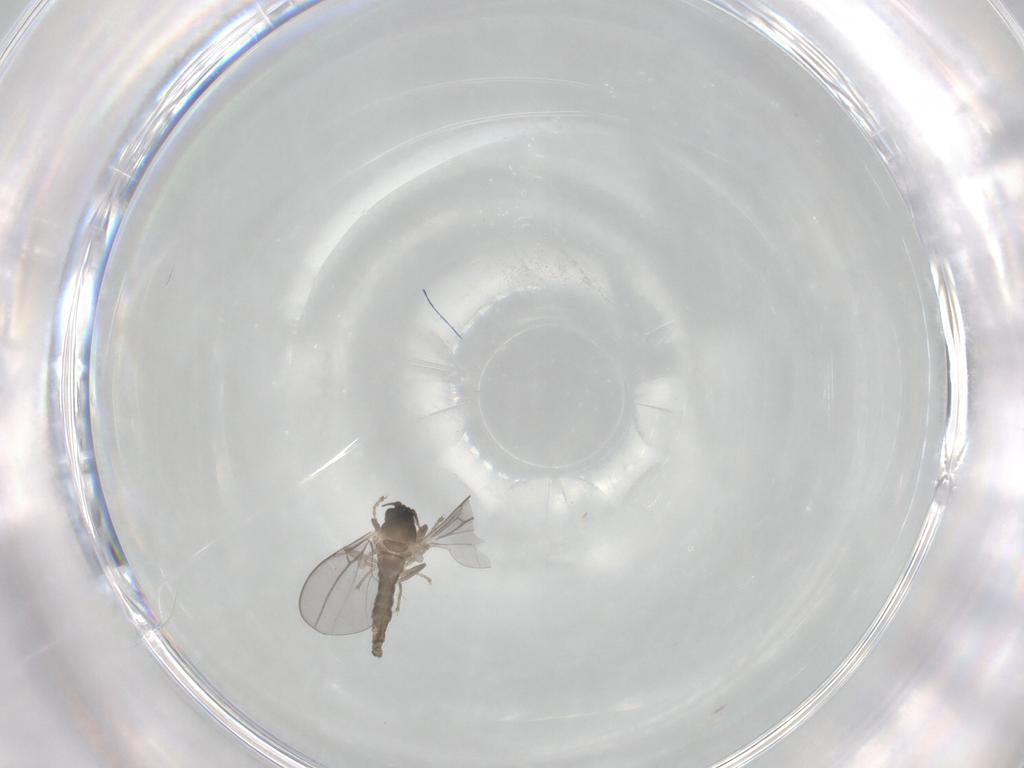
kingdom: Animalia
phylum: Arthropoda
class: Insecta
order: Diptera
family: Cecidomyiidae
